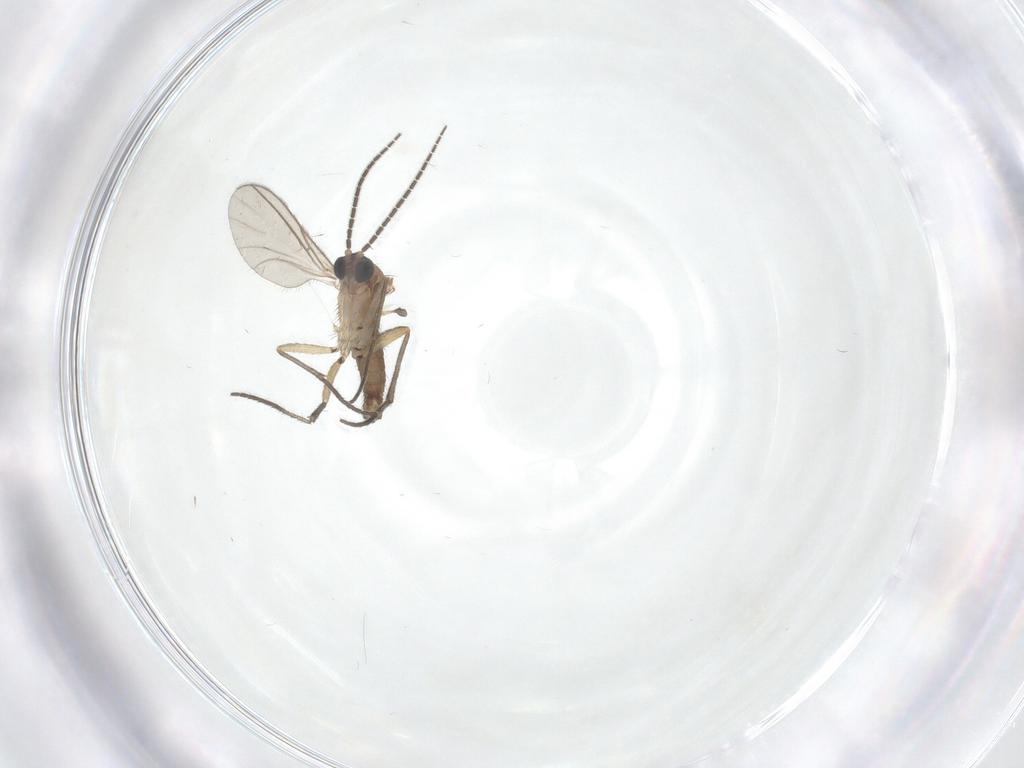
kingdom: Animalia
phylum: Arthropoda
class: Insecta
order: Diptera
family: Sciaridae
